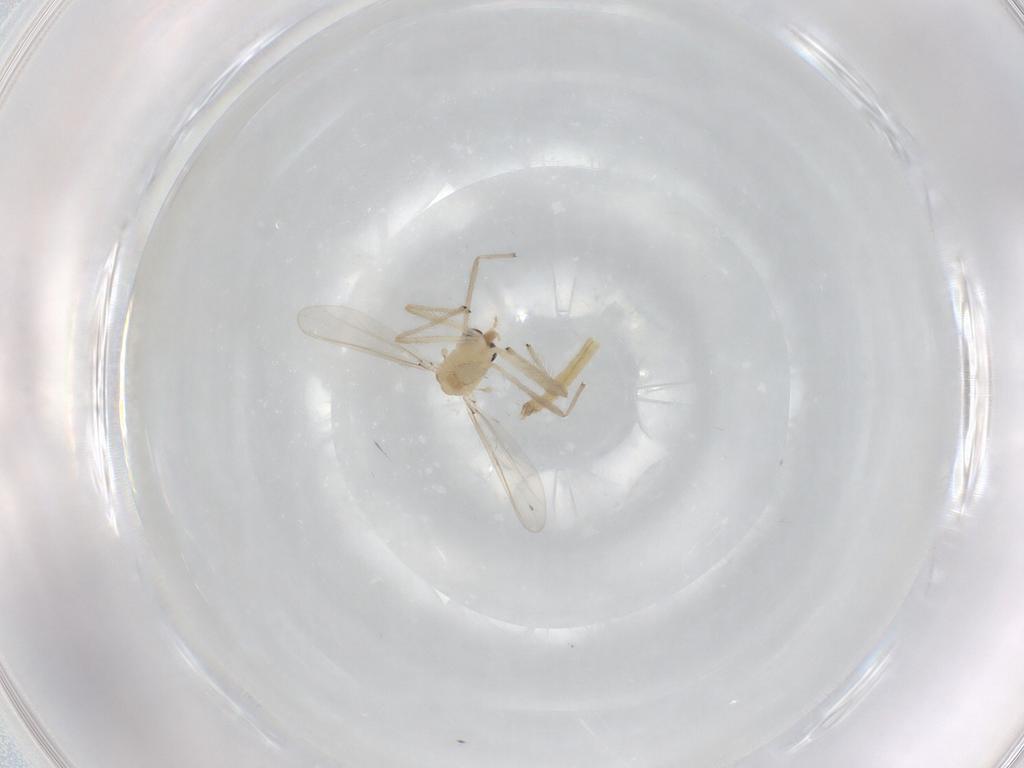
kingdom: Animalia
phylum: Arthropoda
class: Insecta
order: Diptera
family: Chironomidae
